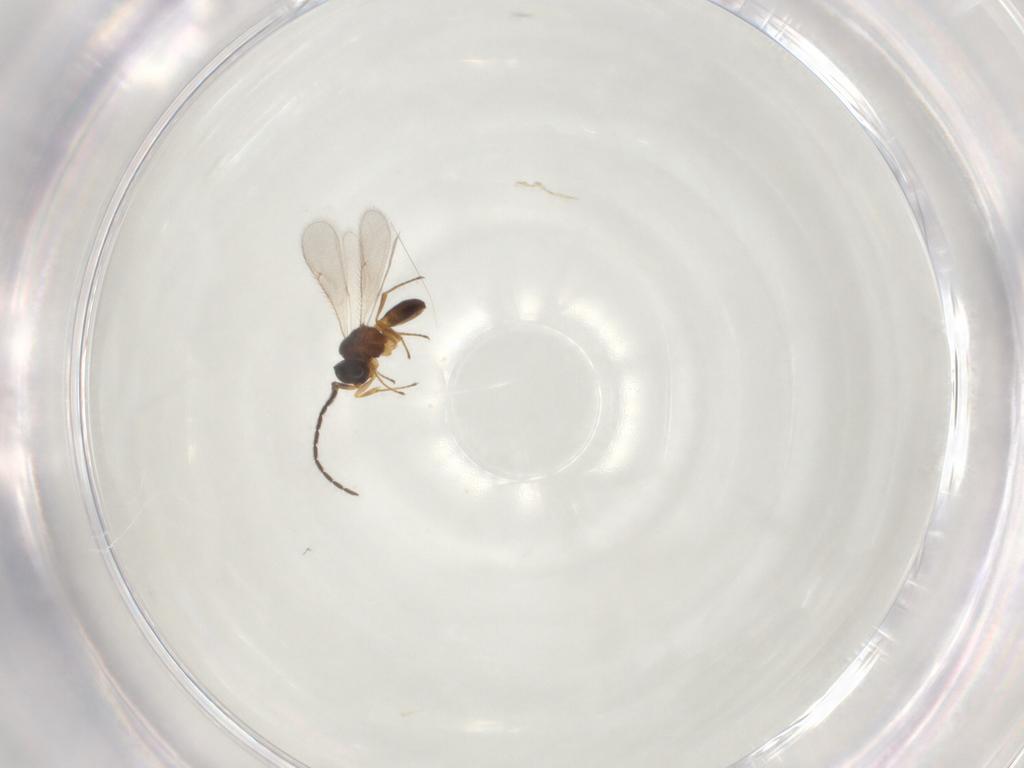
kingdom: Animalia
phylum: Arthropoda
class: Insecta
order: Hymenoptera
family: Scelionidae
